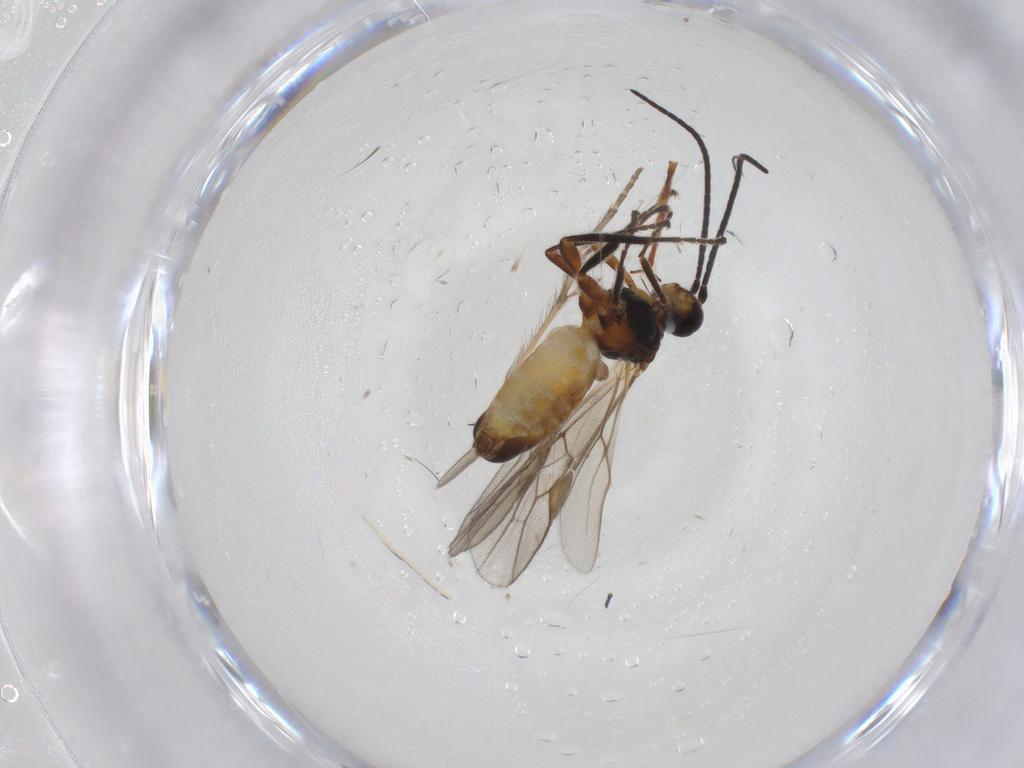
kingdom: Animalia
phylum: Arthropoda
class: Insecta
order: Hymenoptera
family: Braconidae
